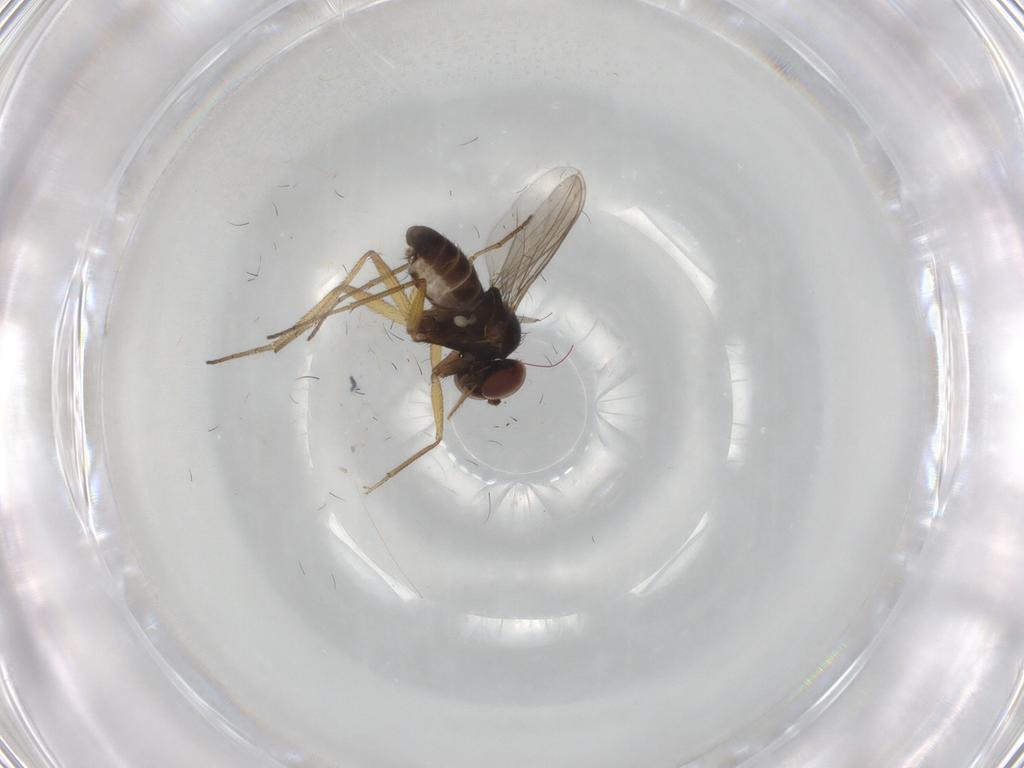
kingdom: Animalia
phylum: Arthropoda
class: Insecta
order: Diptera
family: Dolichopodidae
